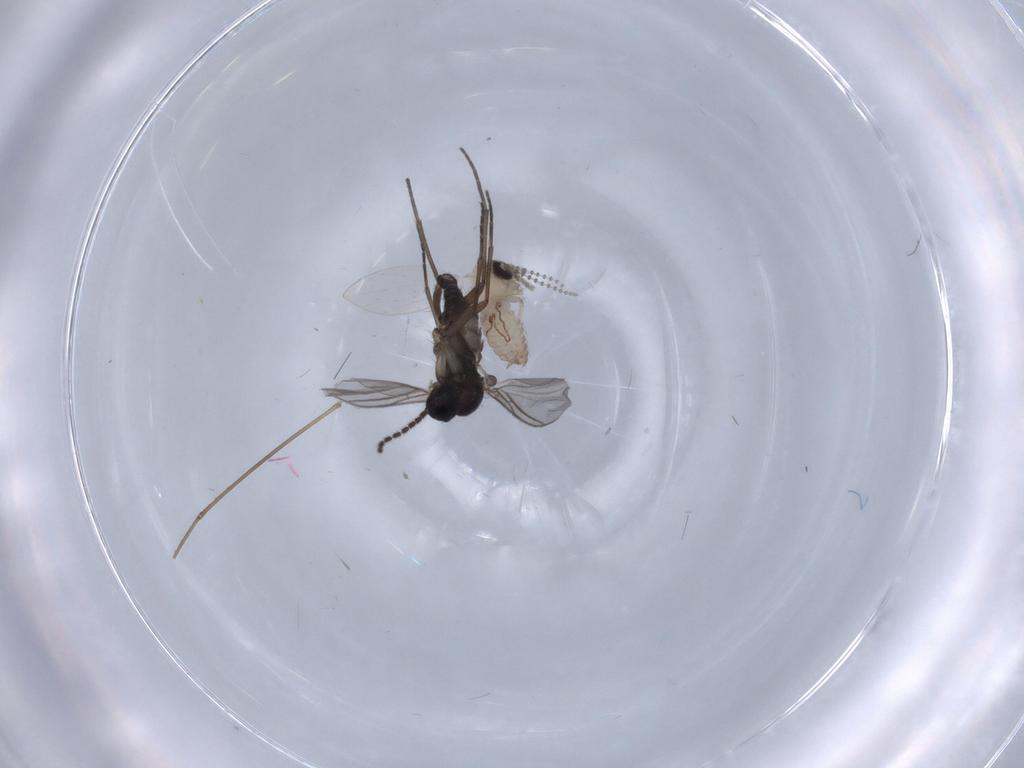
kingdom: Animalia
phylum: Arthropoda
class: Insecta
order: Diptera
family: Psychodidae
